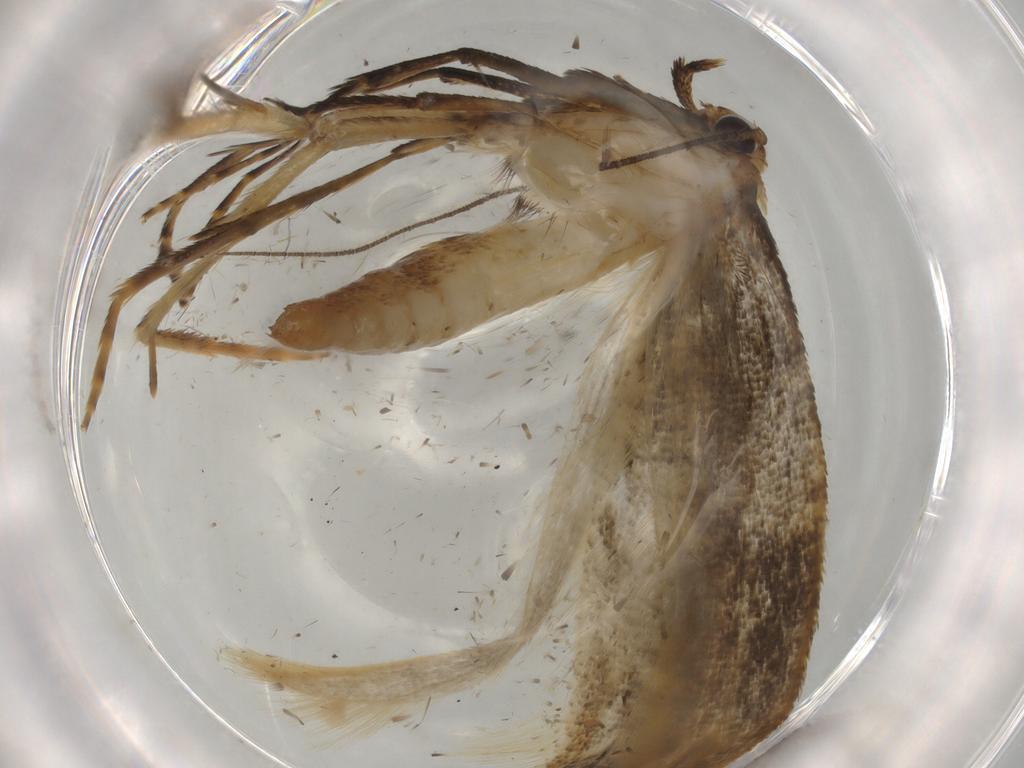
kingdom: Animalia
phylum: Arthropoda
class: Insecta
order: Lepidoptera
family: Epermeniidae
